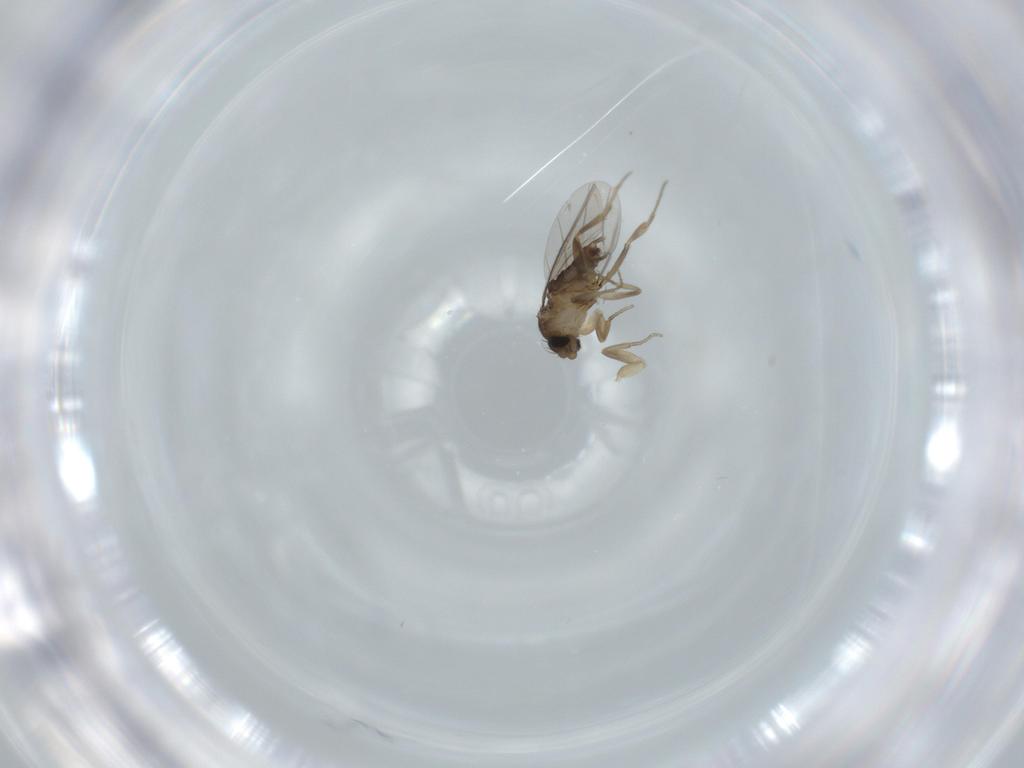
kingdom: Animalia
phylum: Arthropoda
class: Insecta
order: Diptera
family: Phoridae
